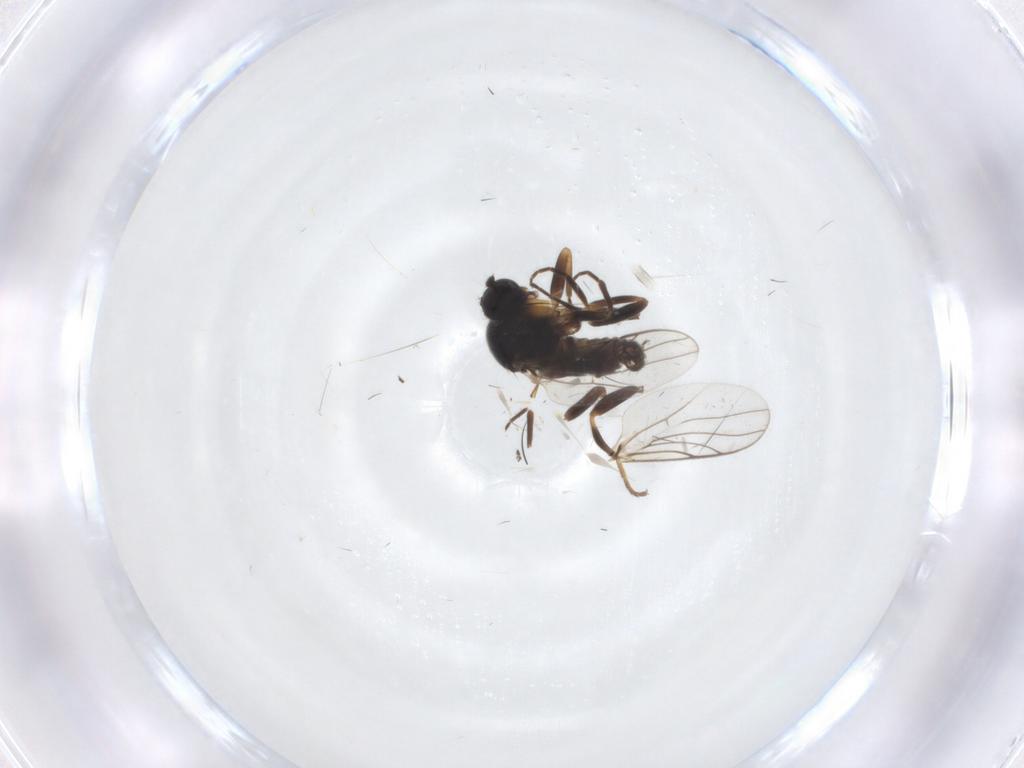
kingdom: Animalia
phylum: Arthropoda
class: Insecta
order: Diptera
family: Hybotidae
